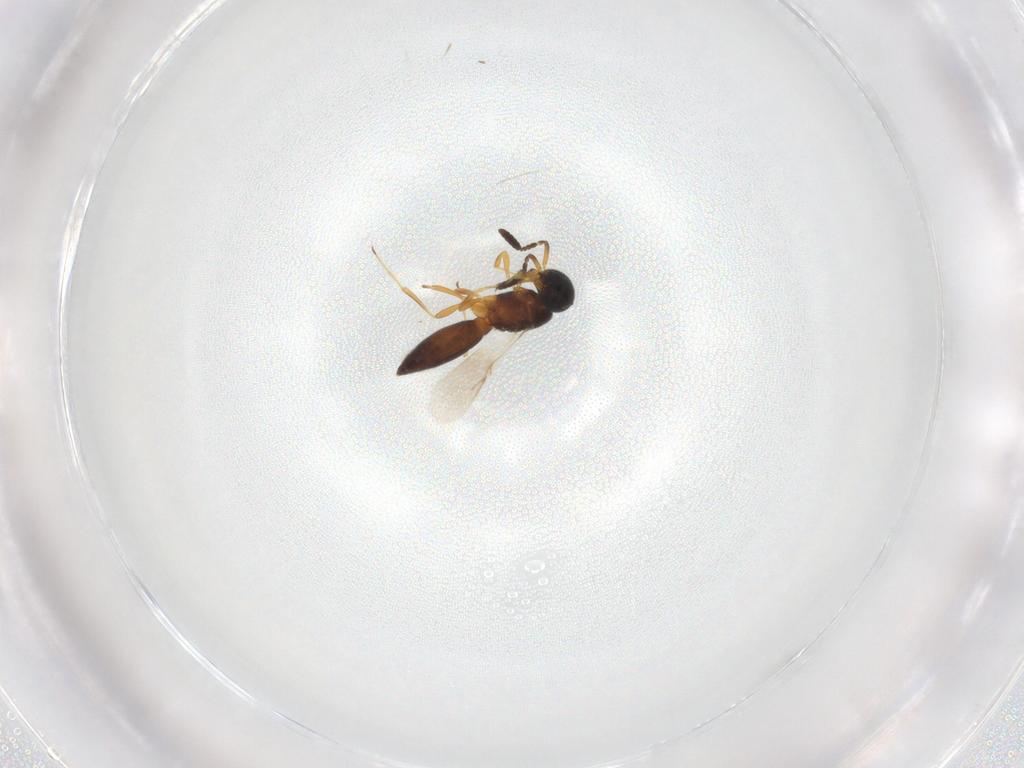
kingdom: Animalia
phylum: Arthropoda
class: Insecta
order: Hymenoptera
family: Scelionidae
